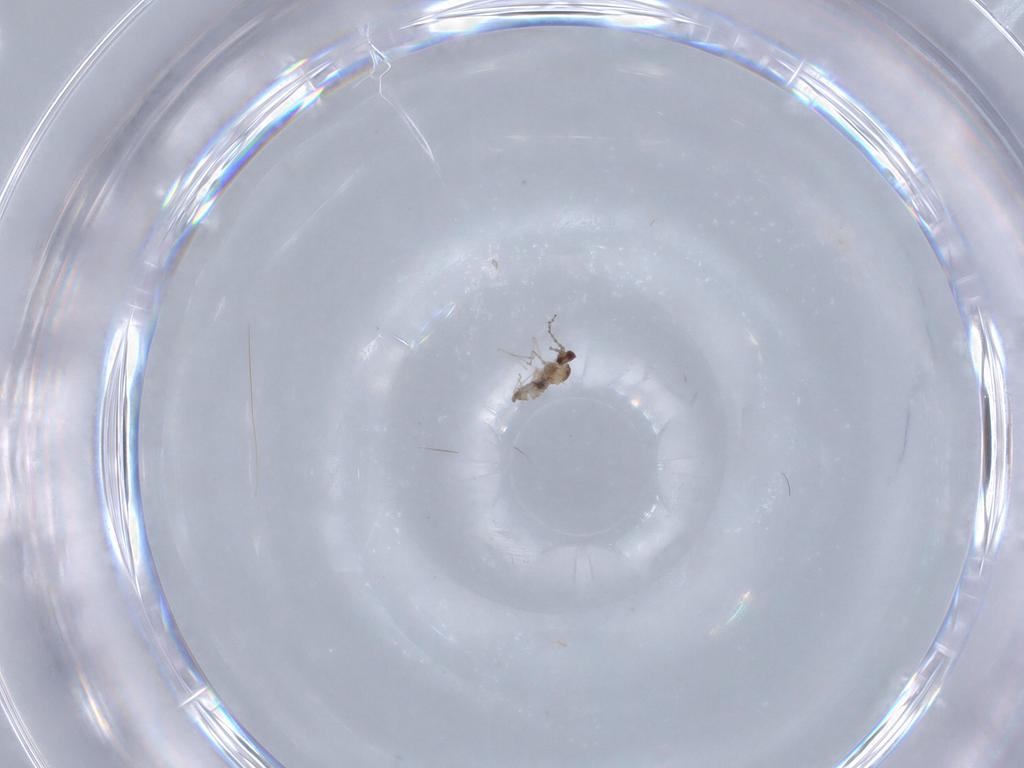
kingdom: Animalia
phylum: Arthropoda
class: Insecta
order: Diptera
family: Cecidomyiidae
